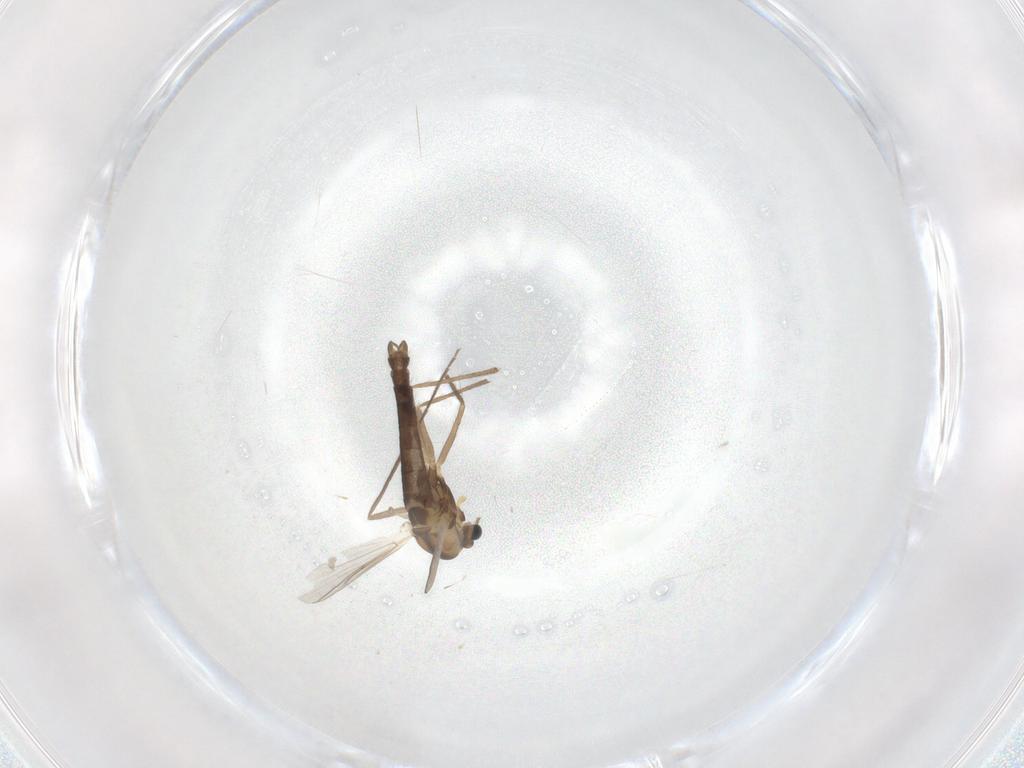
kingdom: Animalia
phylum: Arthropoda
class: Insecta
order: Diptera
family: Chironomidae
